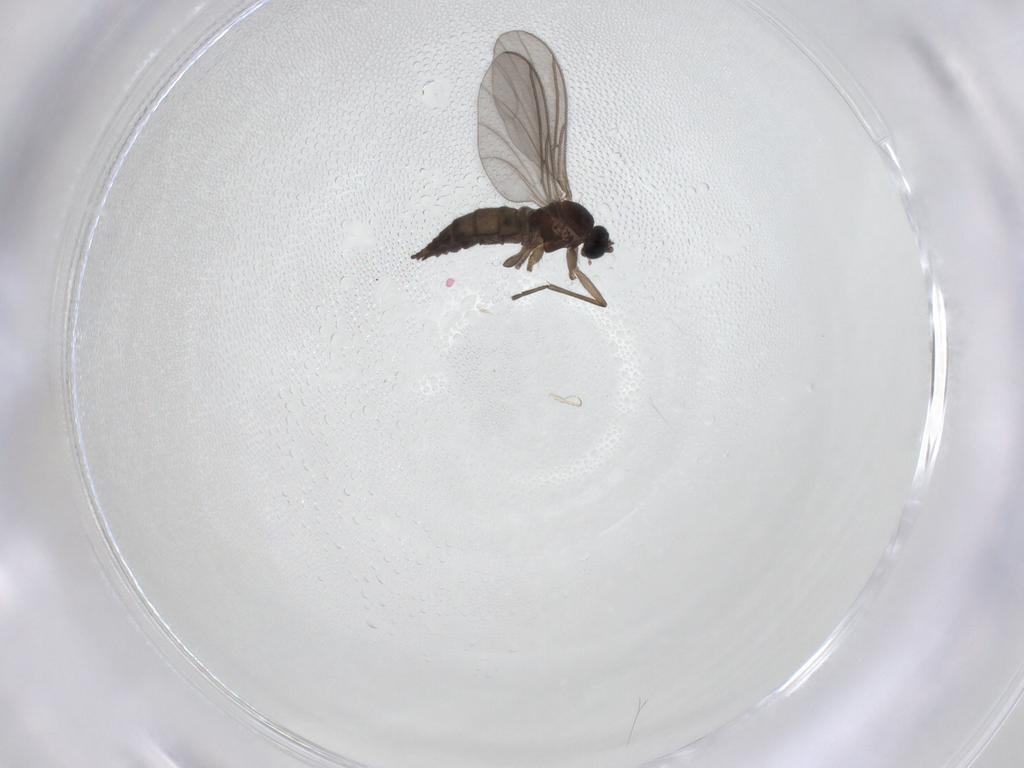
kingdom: Animalia
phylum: Arthropoda
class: Insecta
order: Diptera
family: Sciaridae
